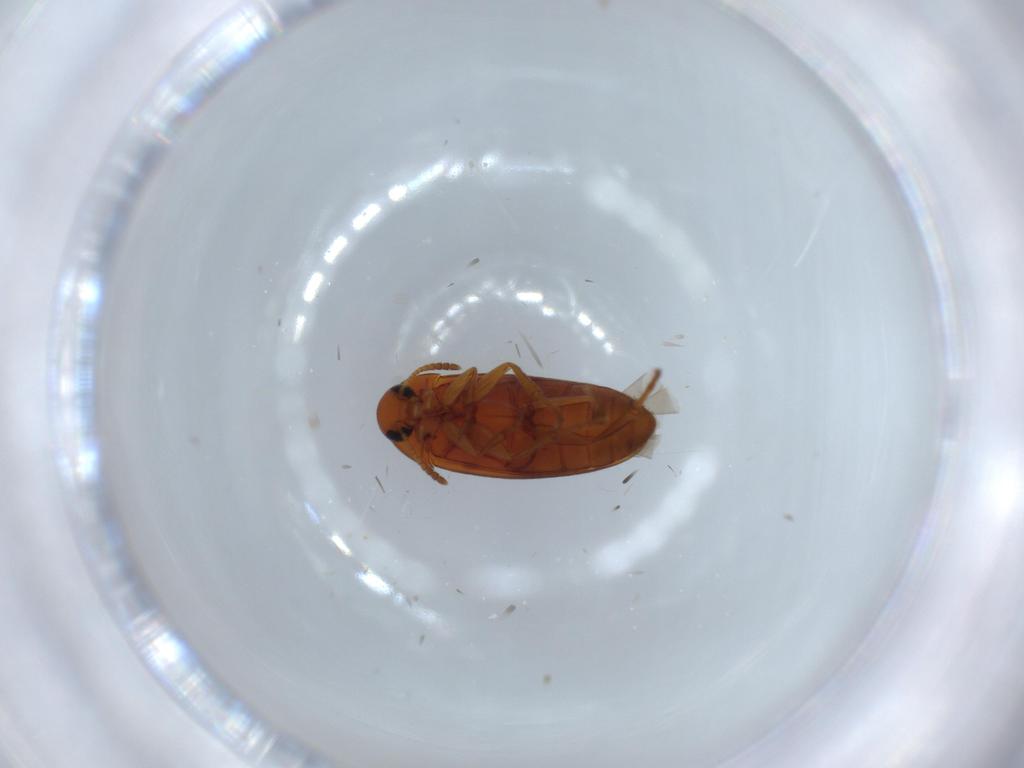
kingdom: Animalia
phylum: Arthropoda
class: Insecta
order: Coleoptera
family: Scraptiidae
